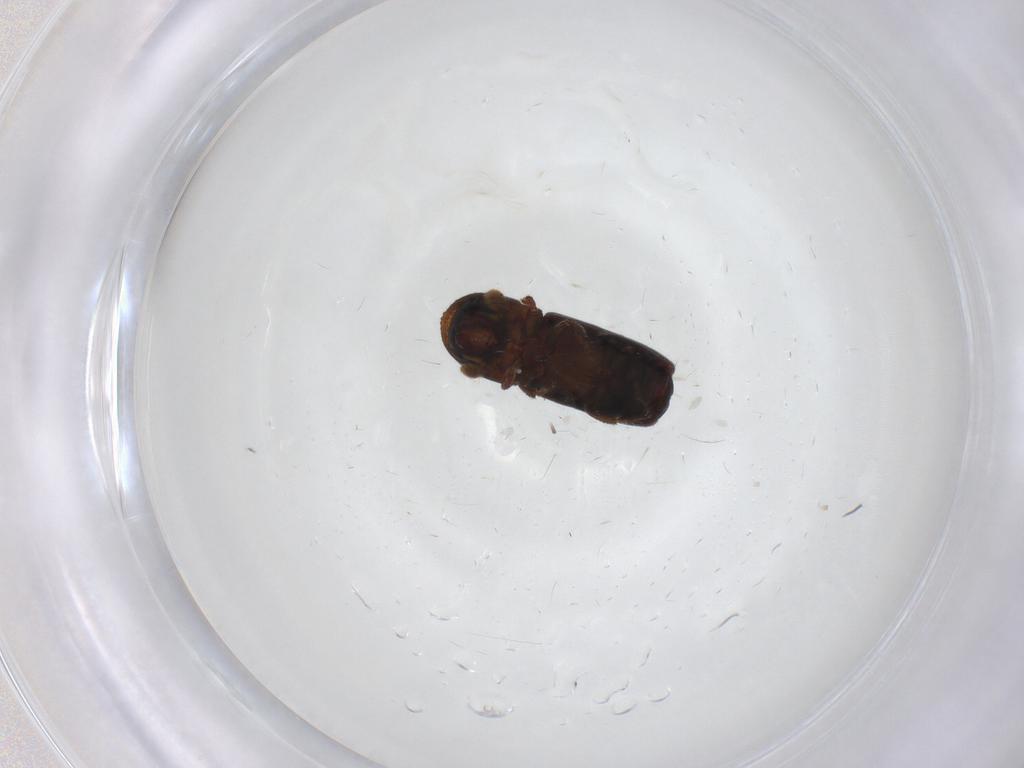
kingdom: Animalia
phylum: Arthropoda
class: Insecta
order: Coleoptera
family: Curculionidae
